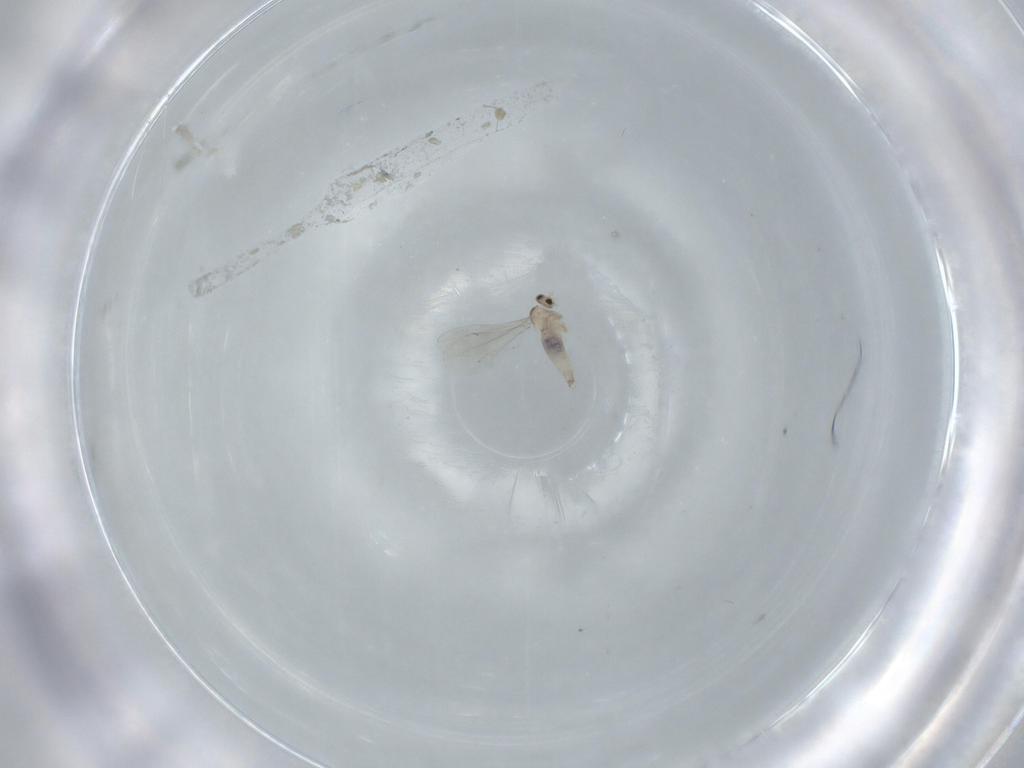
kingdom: Animalia
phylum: Arthropoda
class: Insecta
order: Diptera
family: Cecidomyiidae
